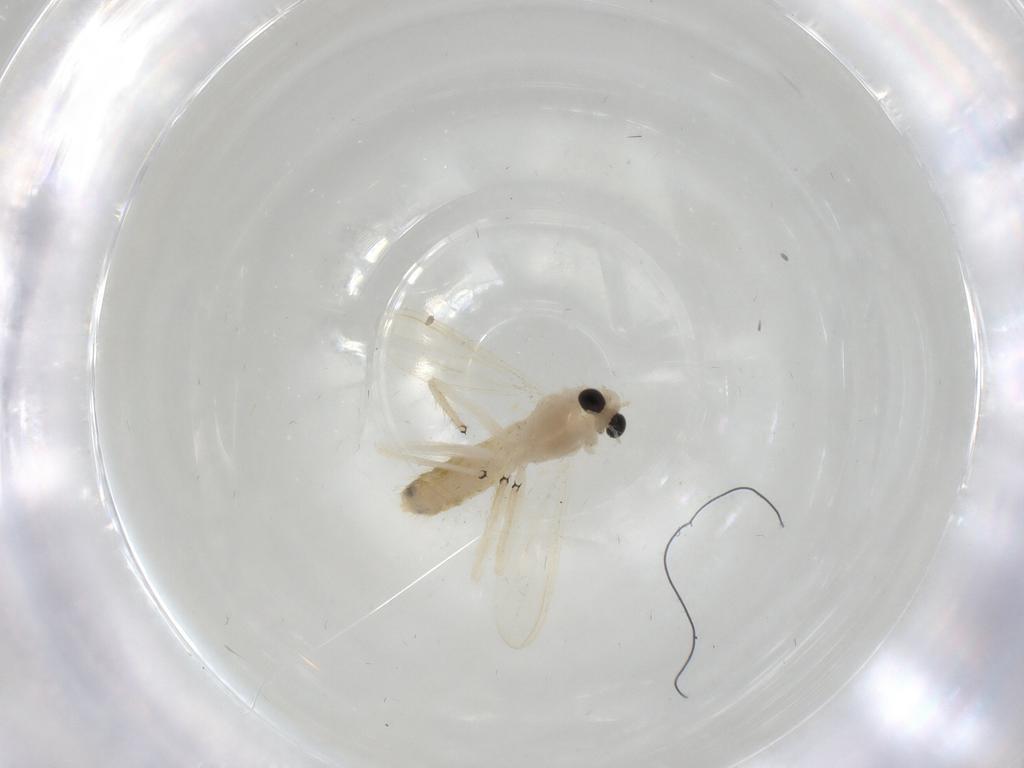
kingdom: Animalia
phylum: Arthropoda
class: Insecta
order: Diptera
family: Chironomidae
